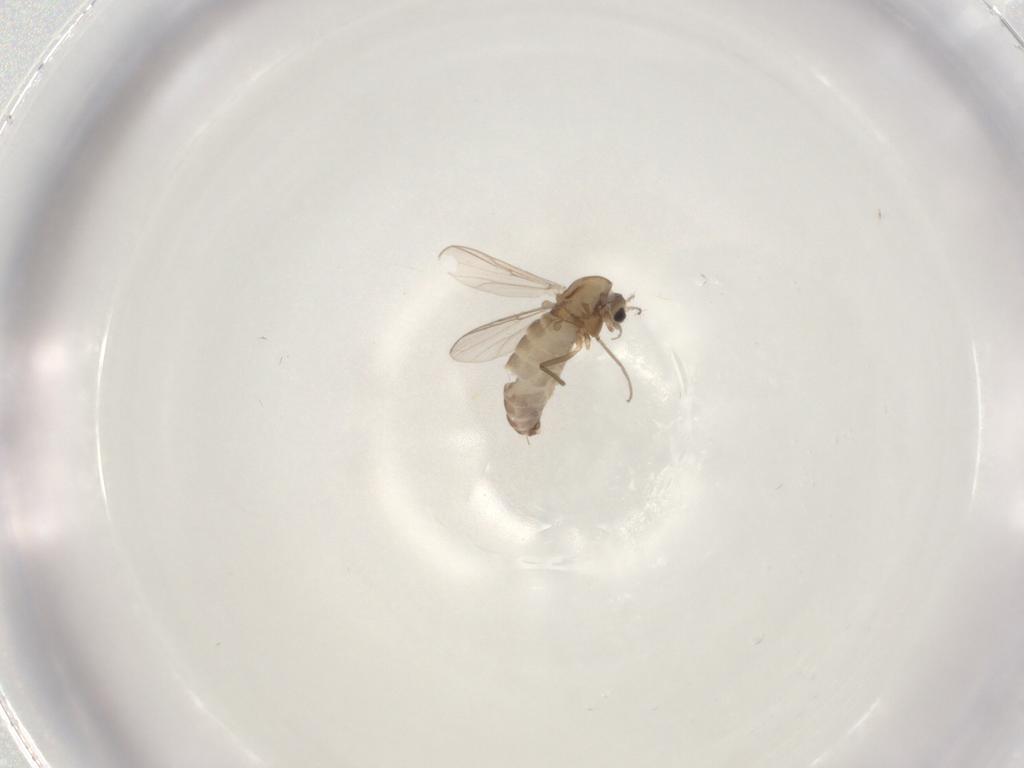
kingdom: Animalia
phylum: Arthropoda
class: Insecta
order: Diptera
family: Chironomidae
